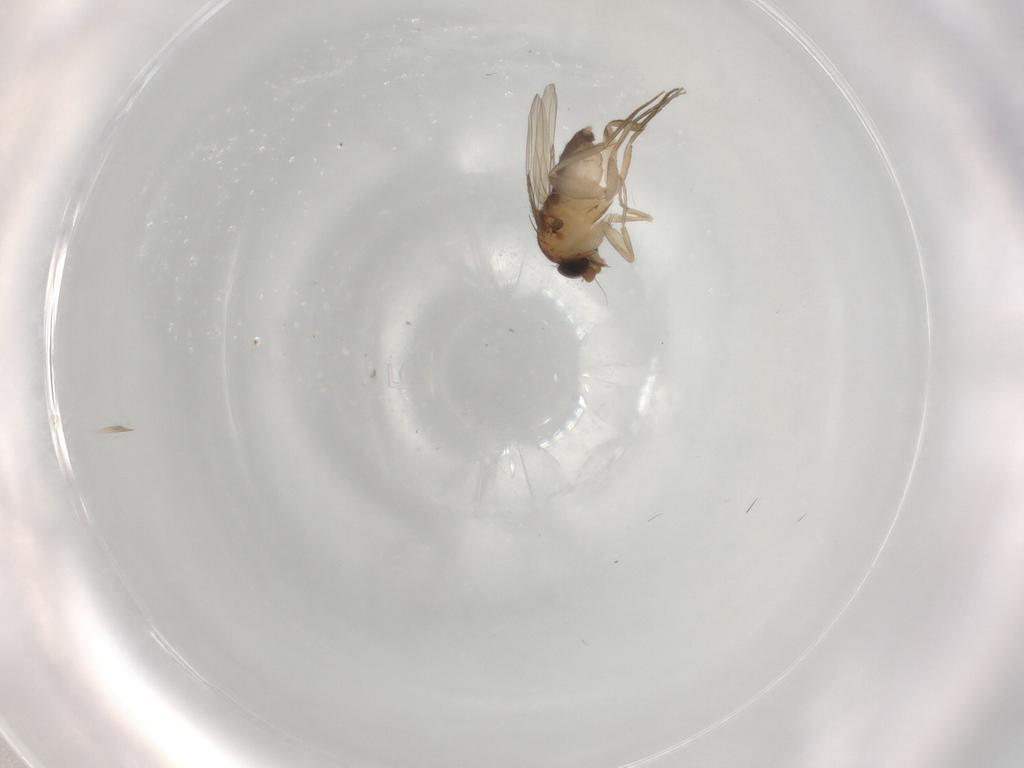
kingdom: Animalia
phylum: Arthropoda
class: Insecta
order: Diptera
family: Phoridae
